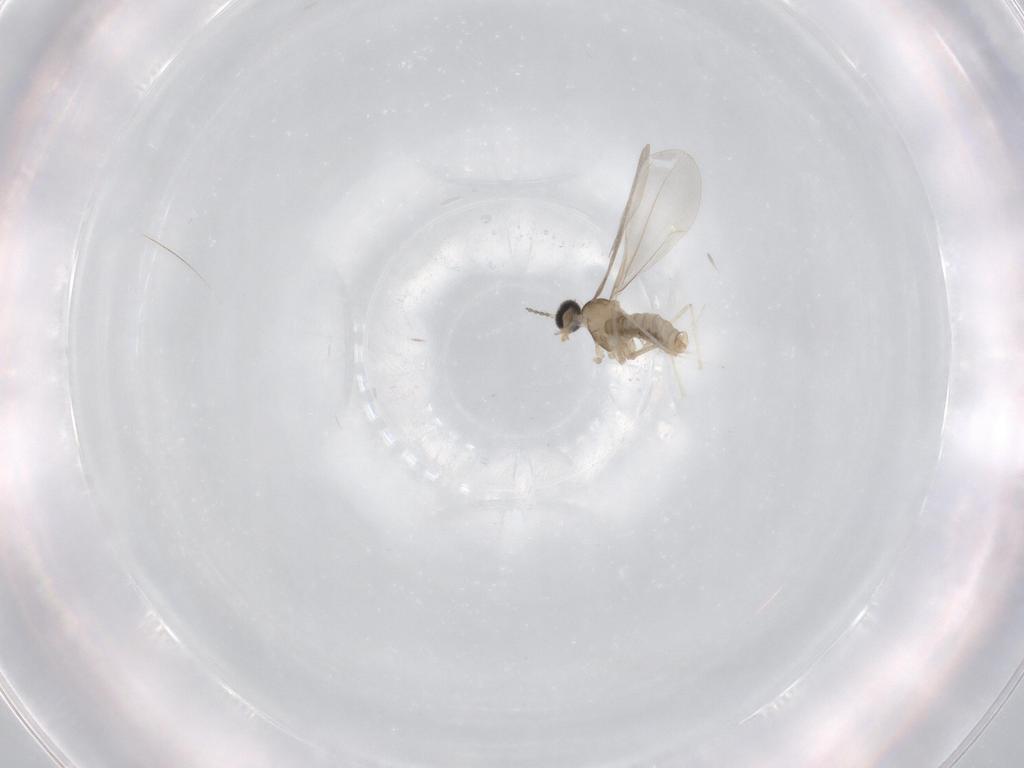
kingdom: Animalia
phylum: Arthropoda
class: Insecta
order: Diptera
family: Cecidomyiidae
